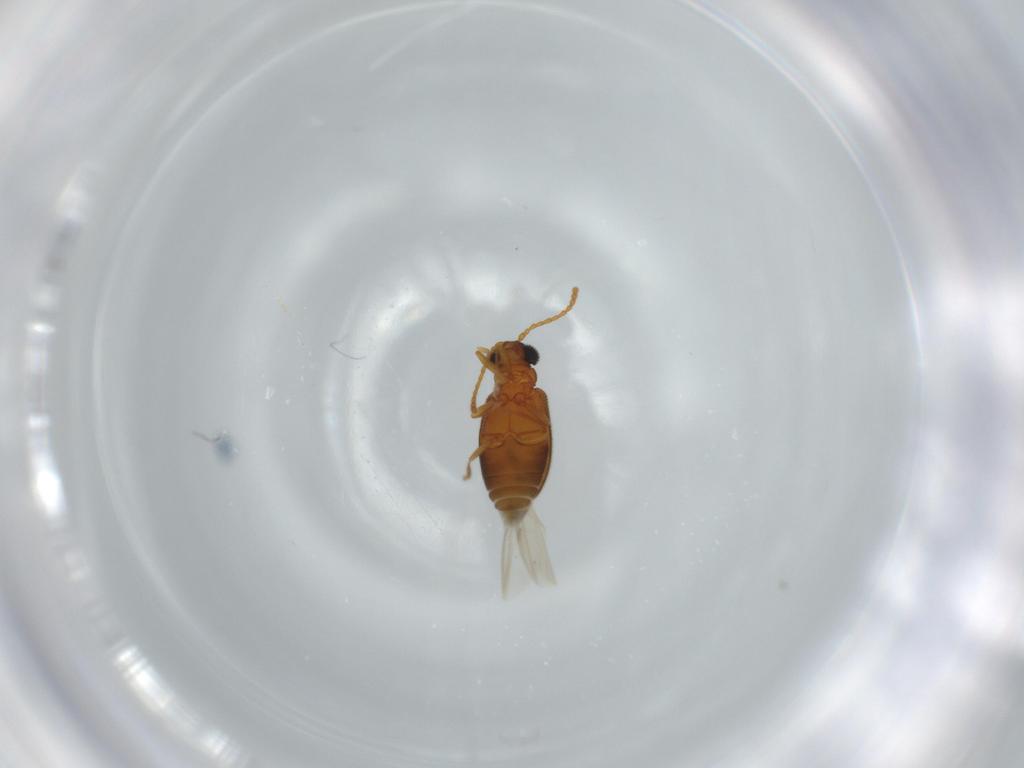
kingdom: Animalia
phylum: Arthropoda
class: Insecta
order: Coleoptera
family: Aderidae
